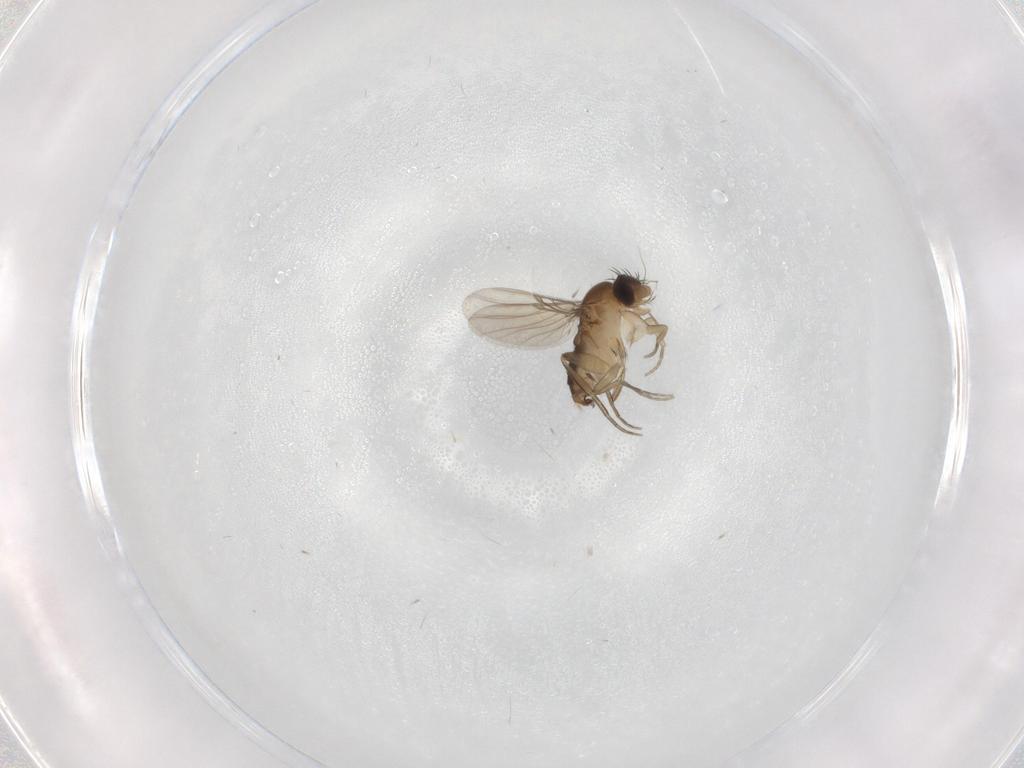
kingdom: Animalia
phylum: Arthropoda
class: Insecta
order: Diptera
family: Phoridae
